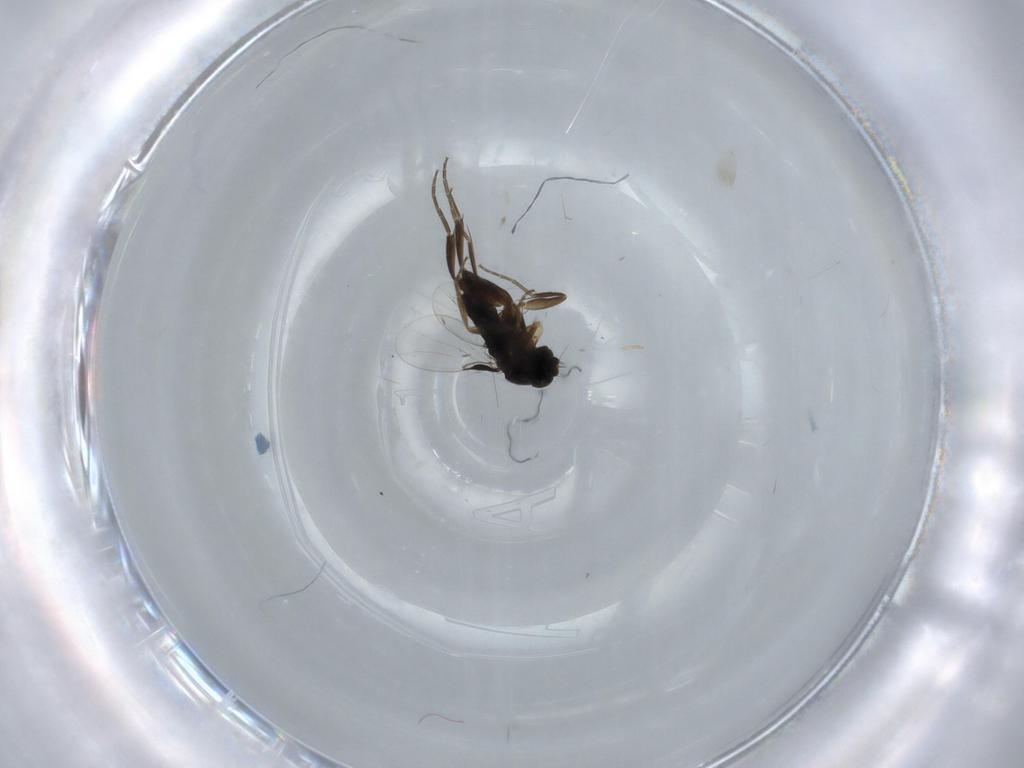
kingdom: Animalia
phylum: Arthropoda
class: Insecta
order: Diptera
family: Phoridae
